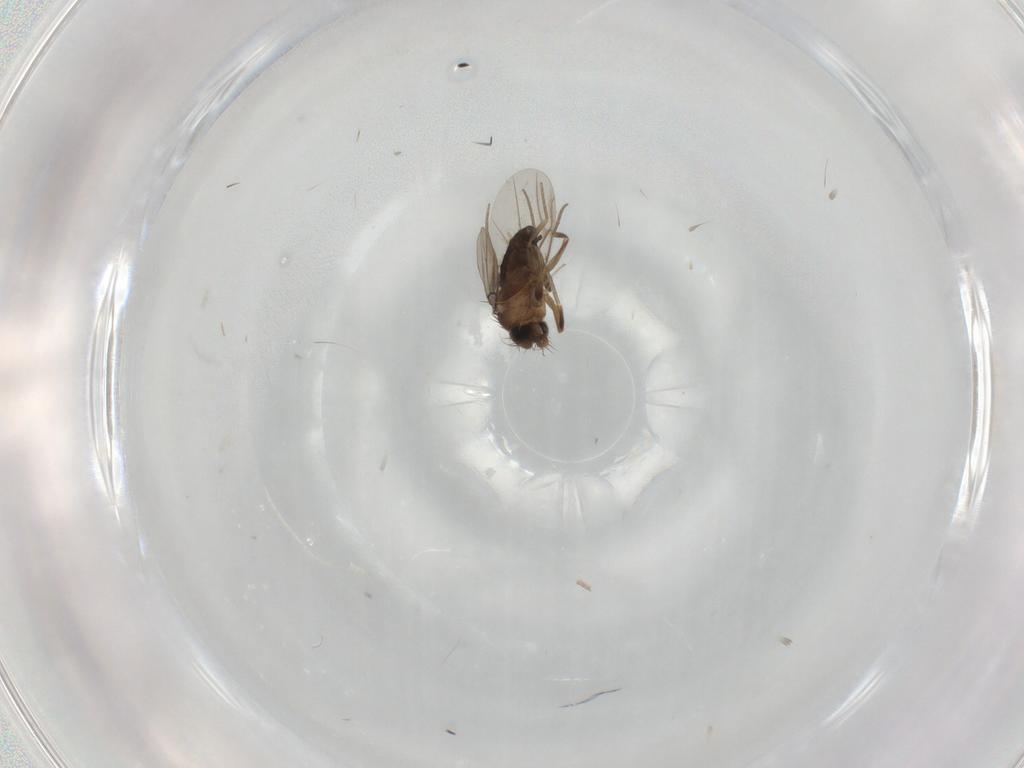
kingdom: Animalia
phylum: Arthropoda
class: Insecta
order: Diptera
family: Phoridae
